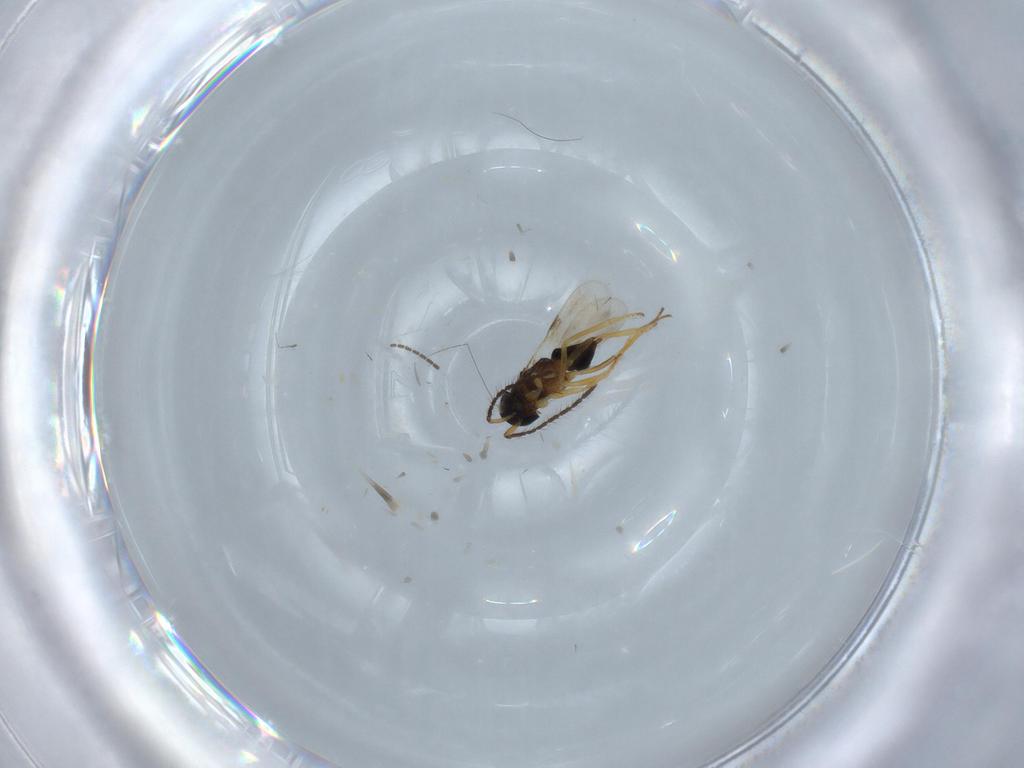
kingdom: Animalia
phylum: Arthropoda
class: Insecta
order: Hymenoptera
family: Encyrtidae
